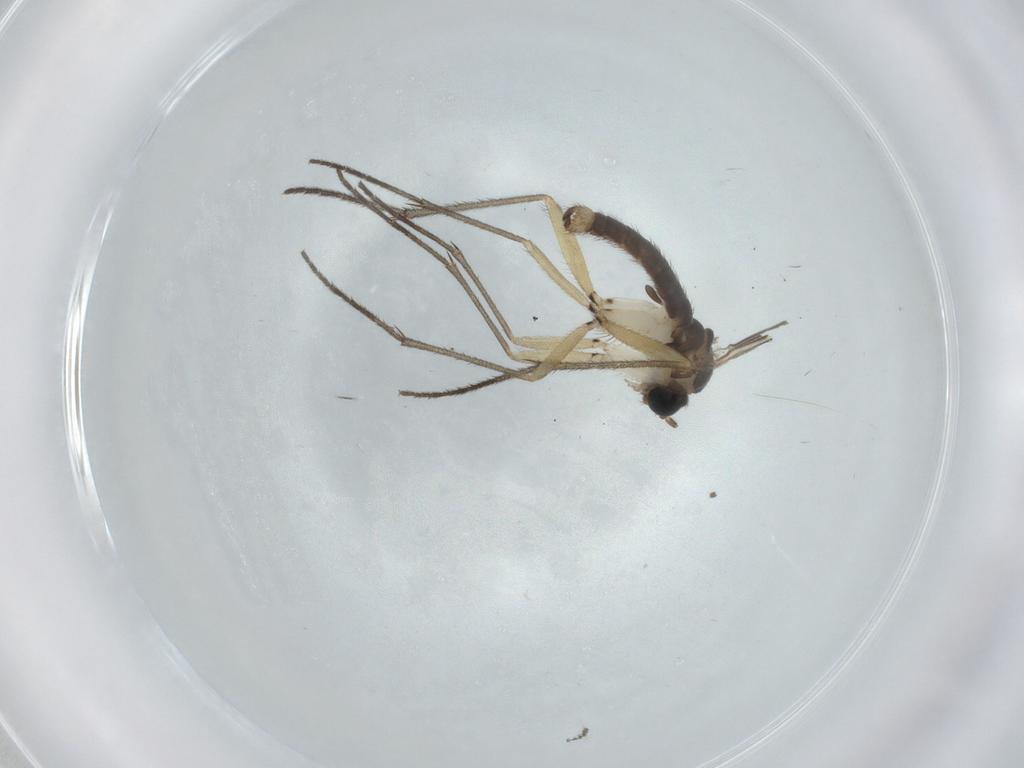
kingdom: Animalia
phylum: Arthropoda
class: Insecta
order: Diptera
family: Sciaridae
